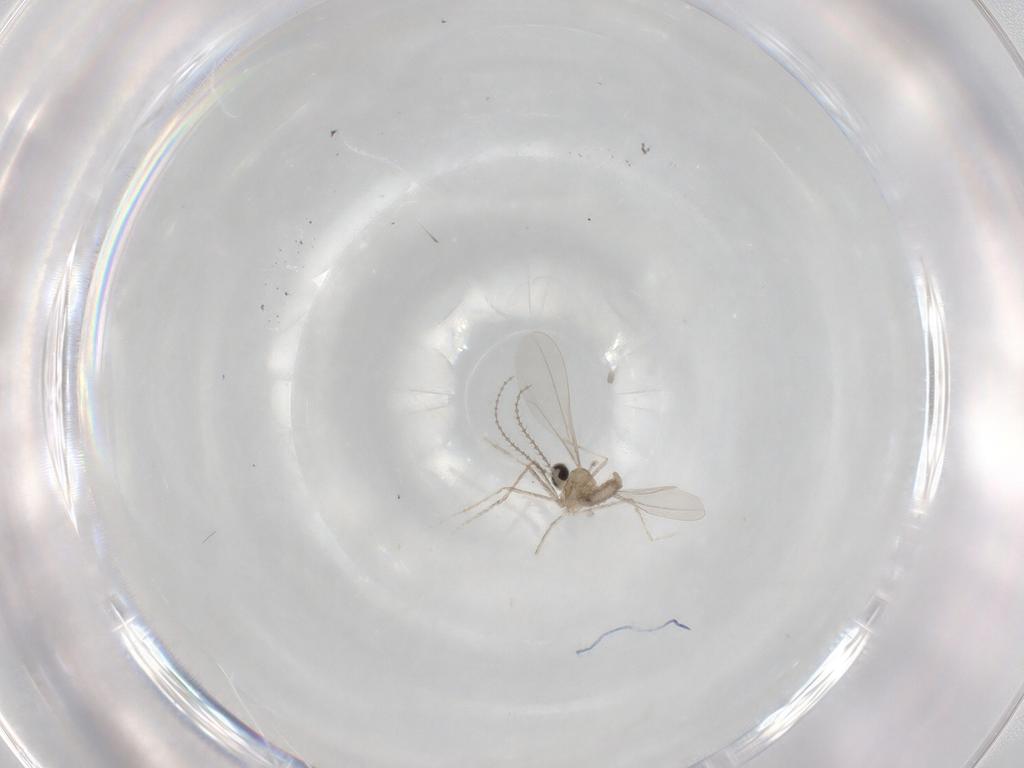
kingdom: Animalia
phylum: Arthropoda
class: Insecta
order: Diptera
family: Cecidomyiidae
